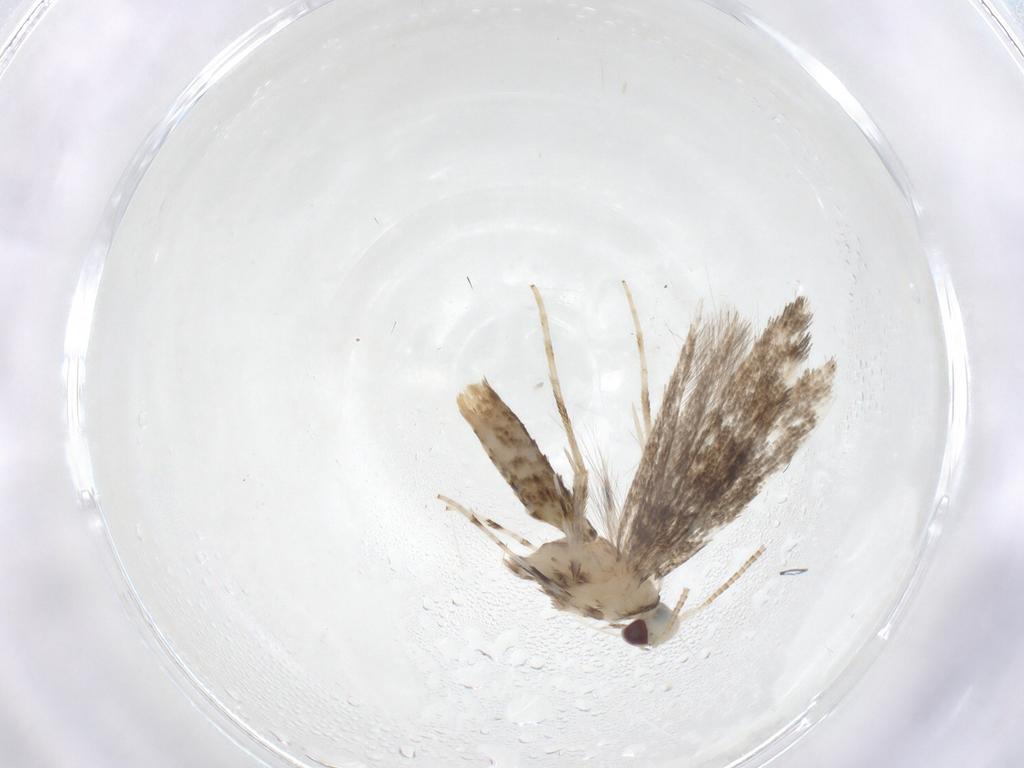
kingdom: Animalia
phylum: Arthropoda
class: Insecta
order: Lepidoptera
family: Gracillariidae
